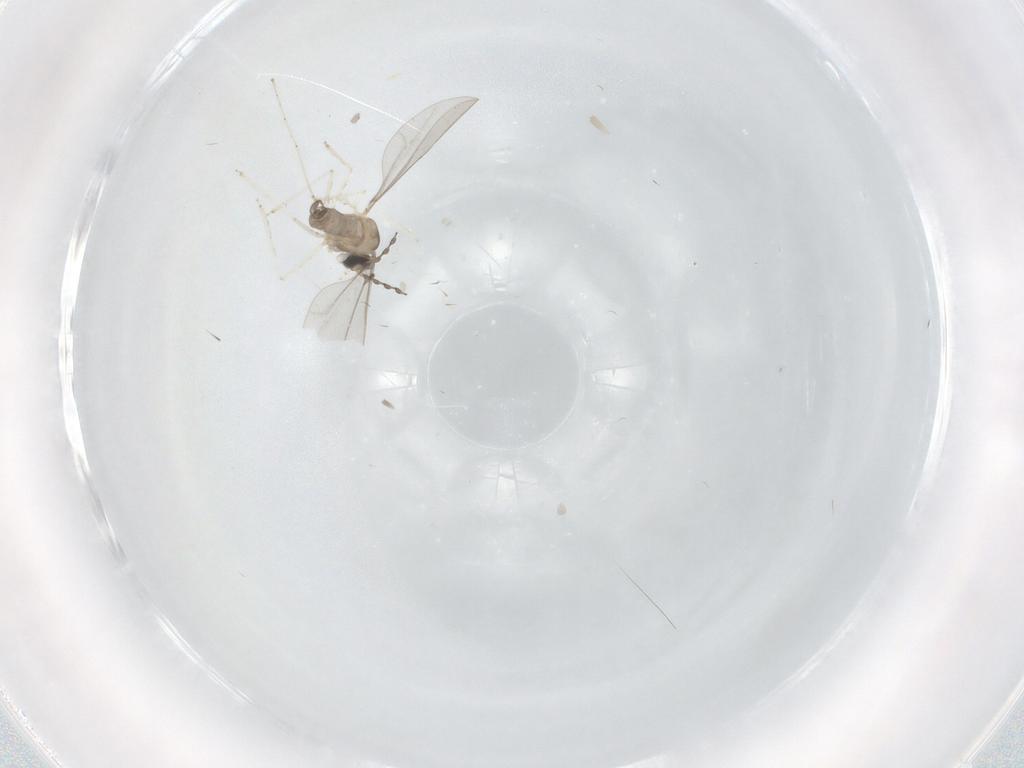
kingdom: Animalia
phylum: Arthropoda
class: Insecta
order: Diptera
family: Cecidomyiidae
